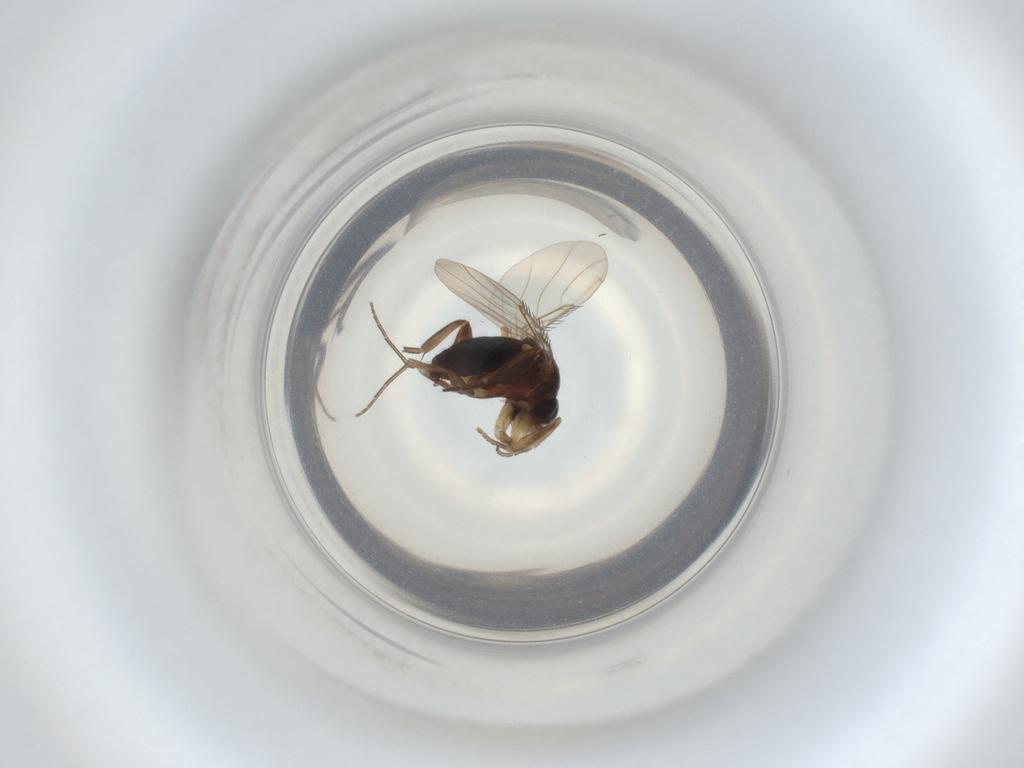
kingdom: Animalia
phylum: Arthropoda
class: Insecta
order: Diptera
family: Phoridae
